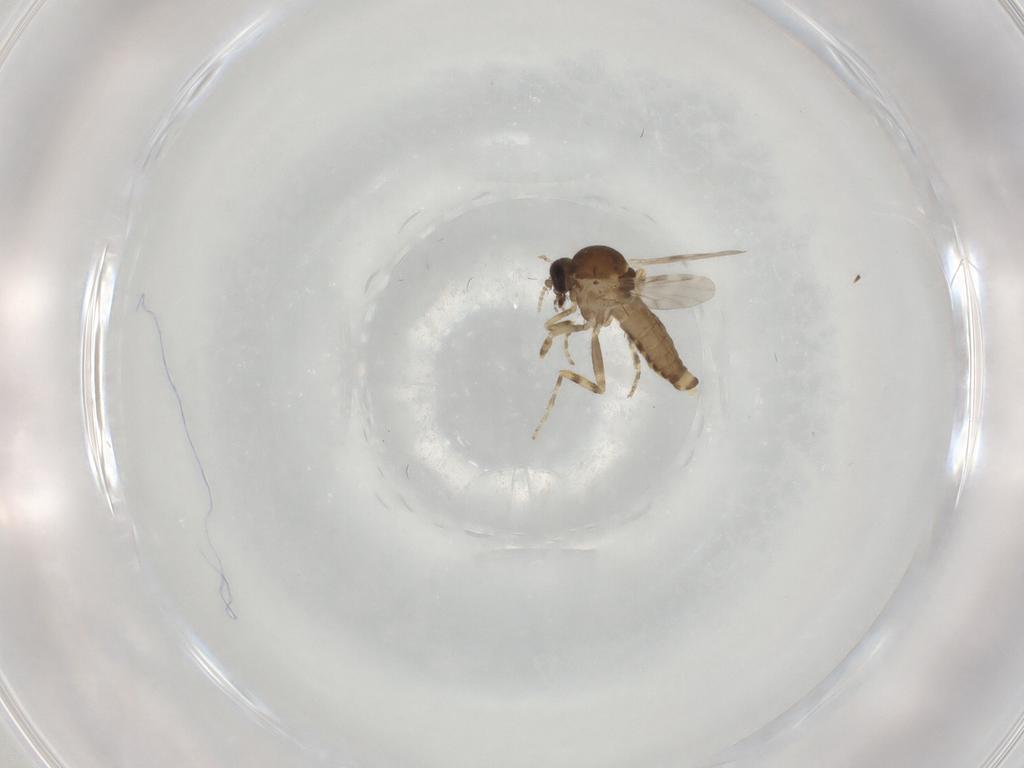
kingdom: Animalia
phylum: Arthropoda
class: Insecta
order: Diptera
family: Ceratopogonidae
